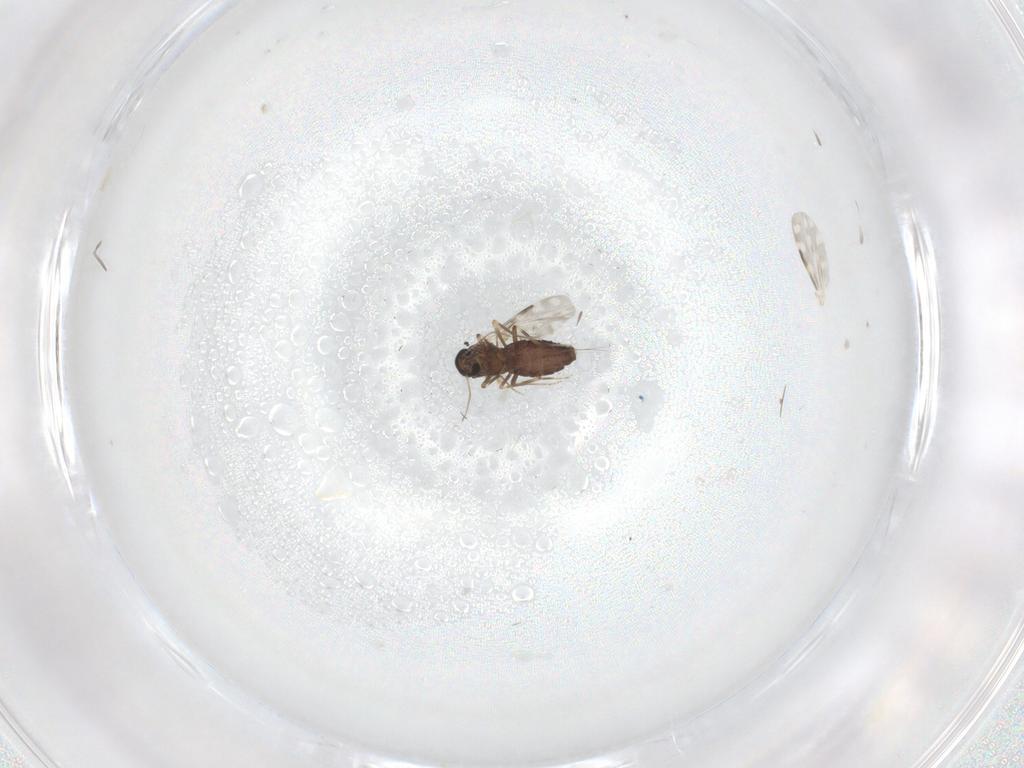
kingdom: Animalia
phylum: Arthropoda
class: Insecta
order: Diptera
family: Ceratopogonidae
